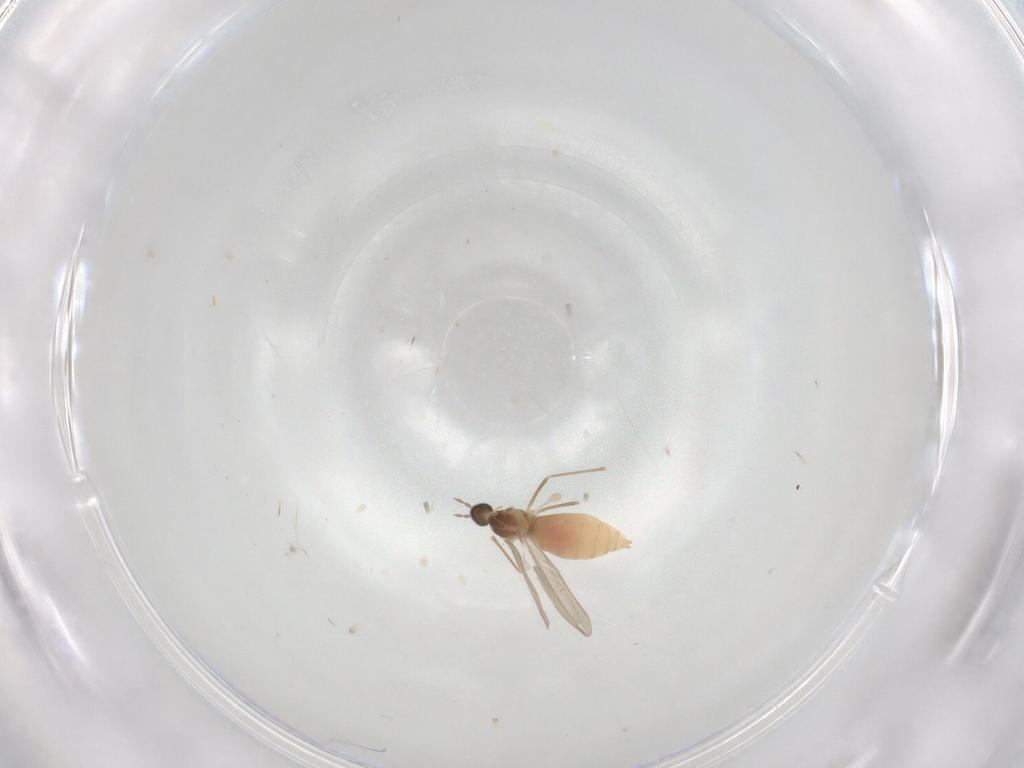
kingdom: Animalia
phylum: Arthropoda
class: Insecta
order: Diptera
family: Cecidomyiidae
